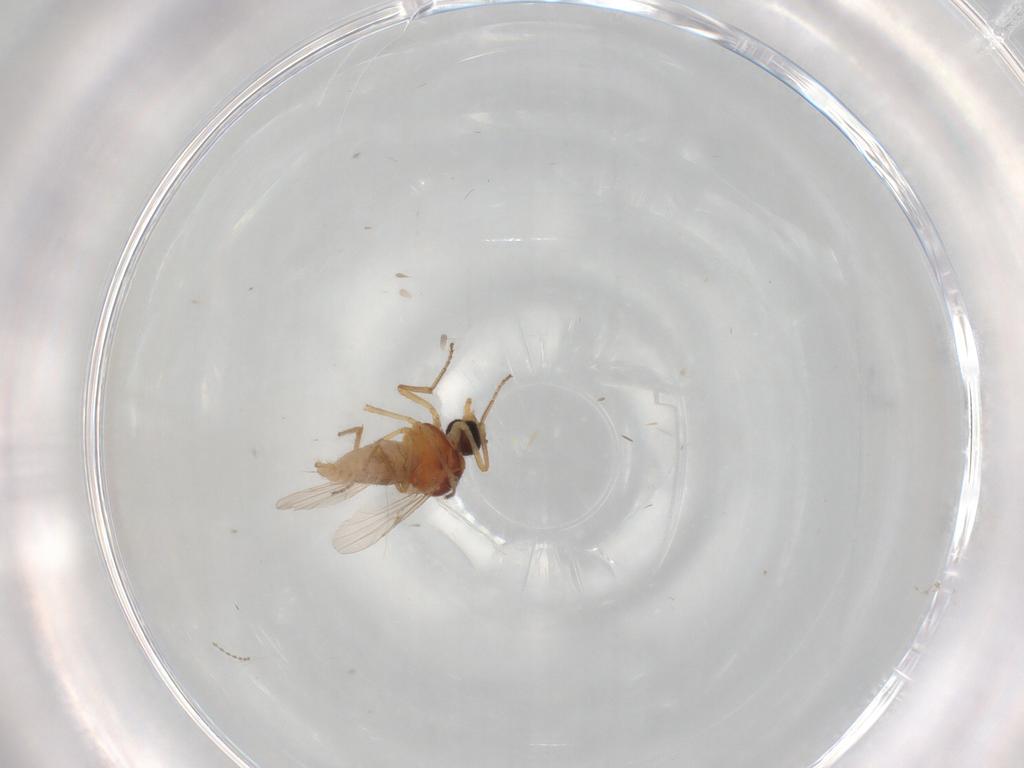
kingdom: Animalia
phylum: Arthropoda
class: Insecta
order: Diptera
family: Ceratopogonidae
